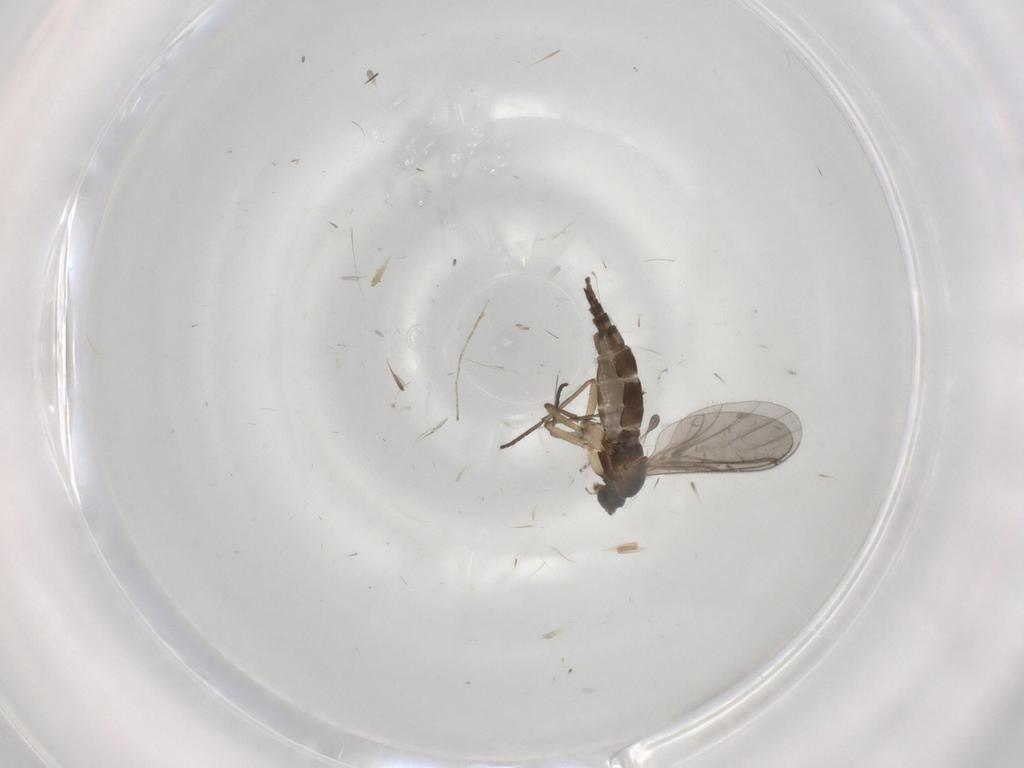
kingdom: Animalia
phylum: Arthropoda
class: Insecta
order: Diptera
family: Sciaridae
